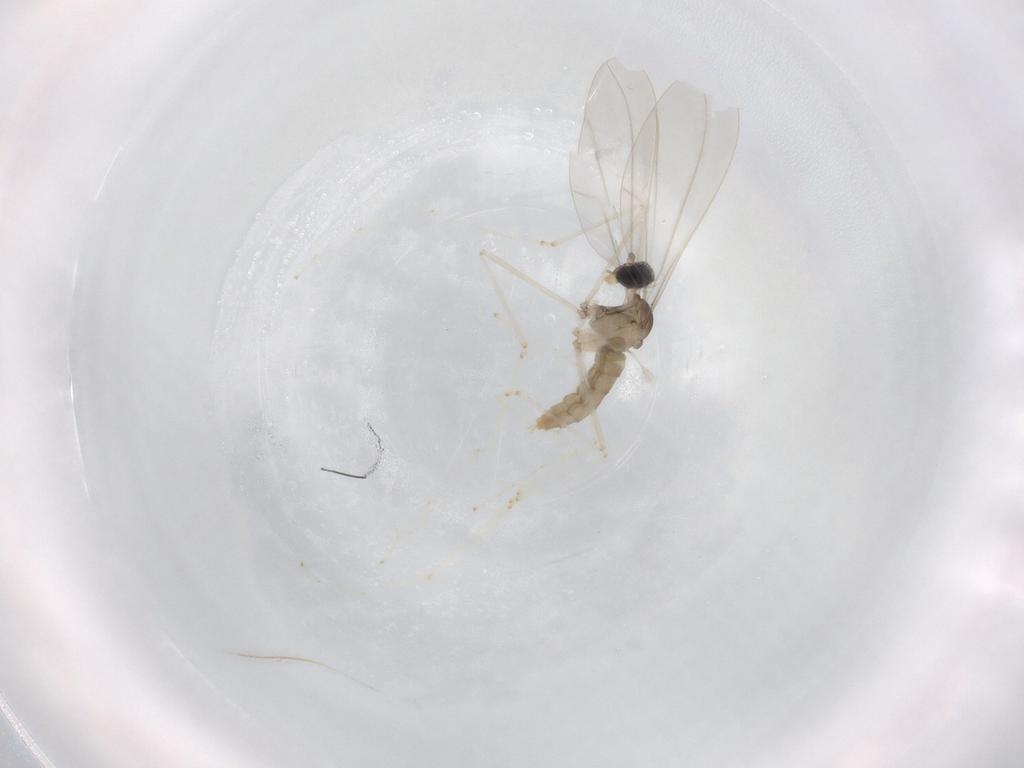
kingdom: Animalia
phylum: Arthropoda
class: Insecta
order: Diptera
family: Cecidomyiidae
